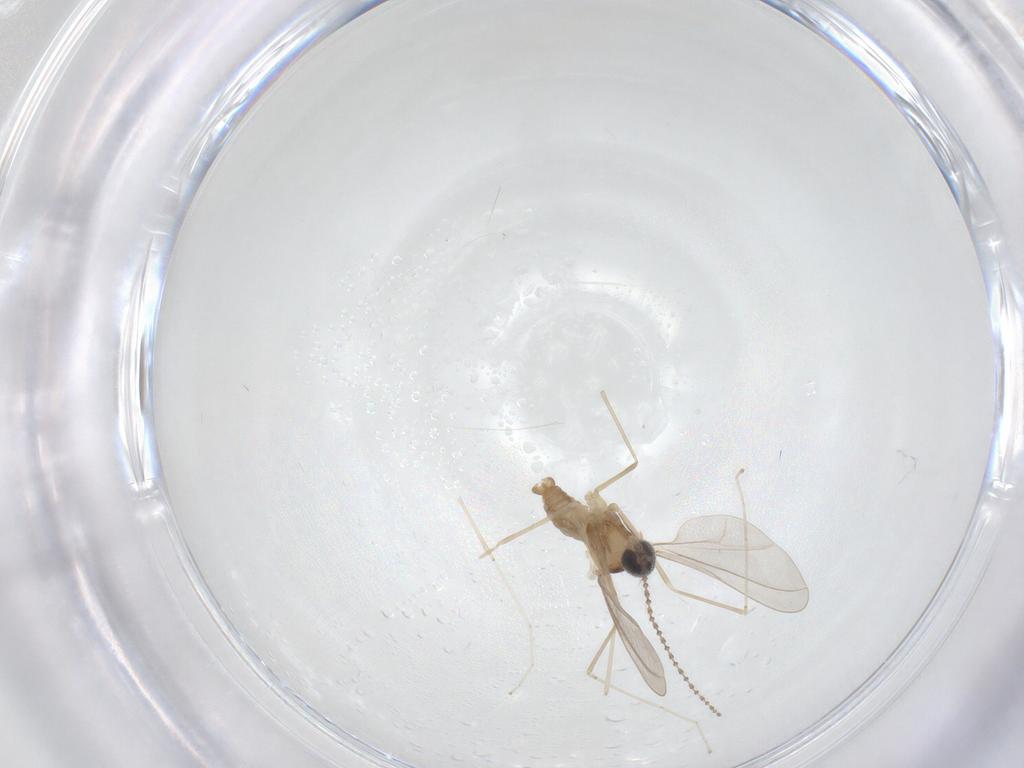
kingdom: Animalia
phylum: Arthropoda
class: Insecta
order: Diptera
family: Cecidomyiidae
